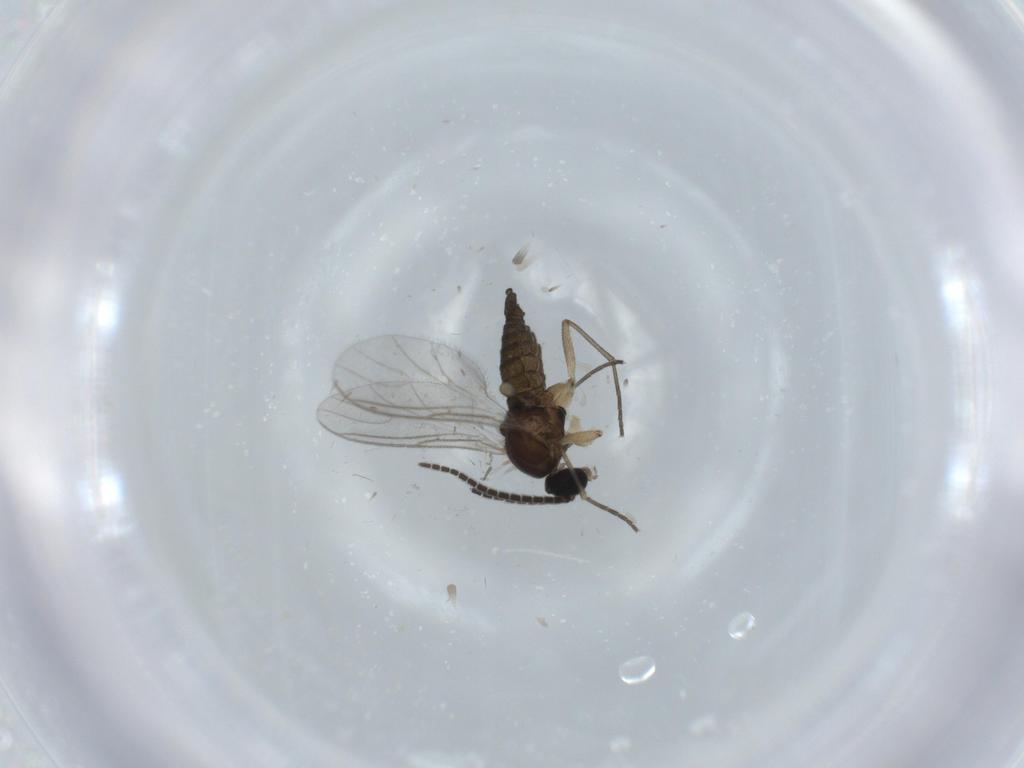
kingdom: Animalia
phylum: Arthropoda
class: Insecta
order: Diptera
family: Sciaridae
